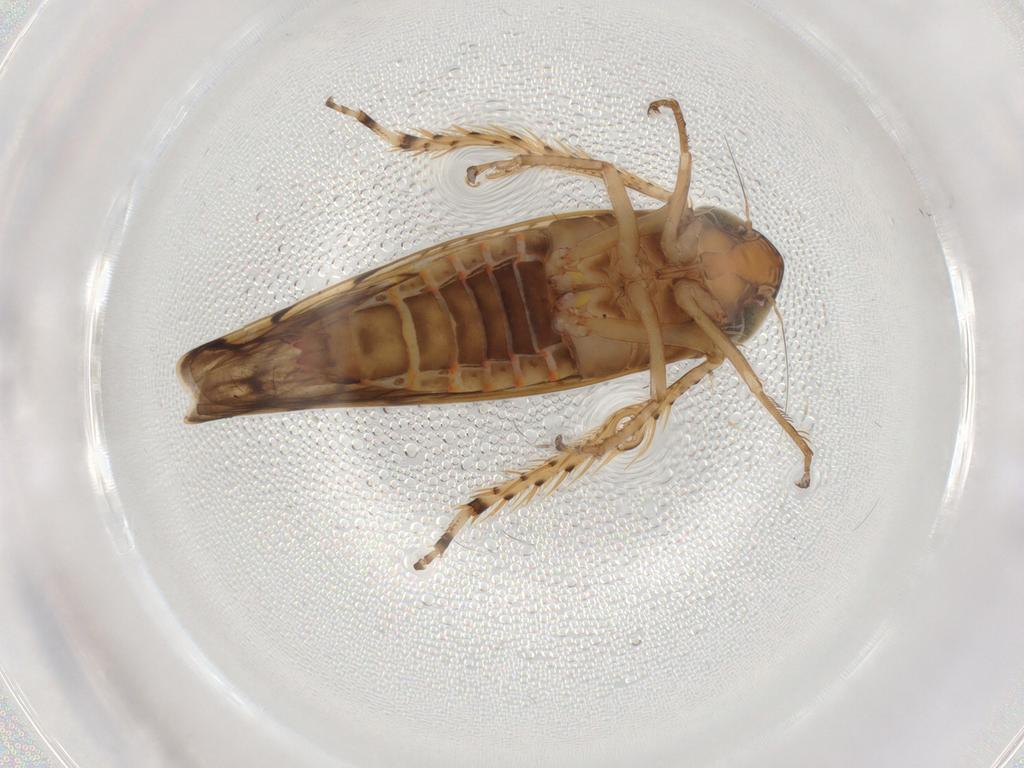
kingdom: Animalia
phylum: Arthropoda
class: Insecta
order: Hemiptera
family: Cicadellidae
